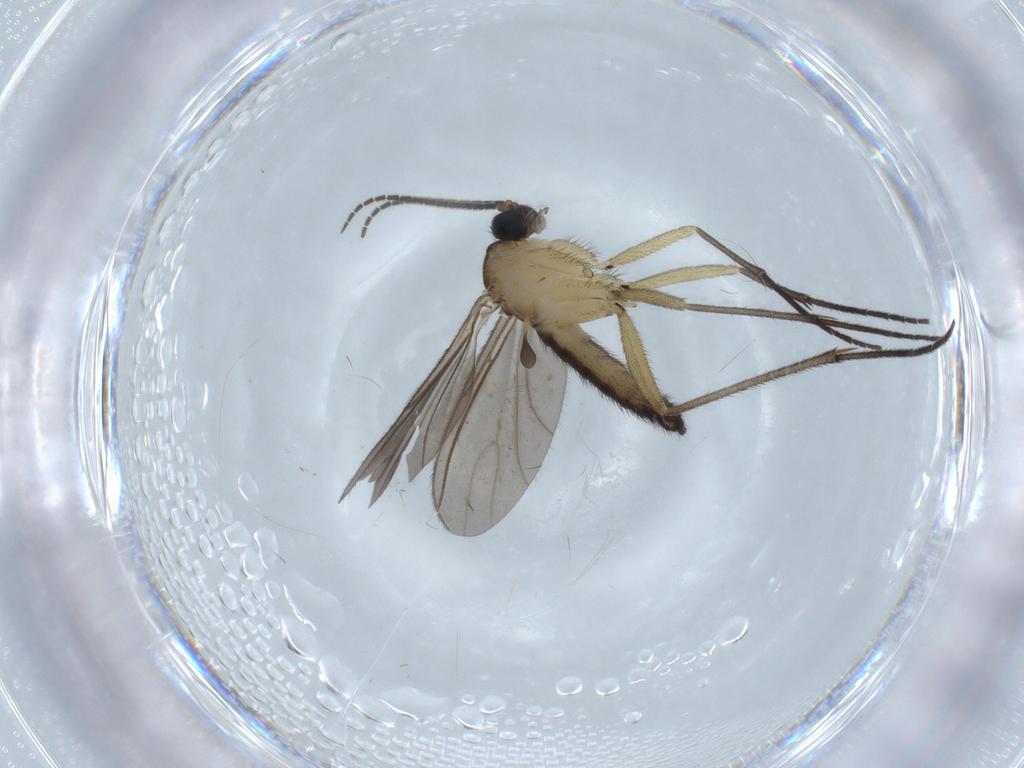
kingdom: Animalia
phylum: Arthropoda
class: Insecta
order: Diptera
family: Sciaridae
